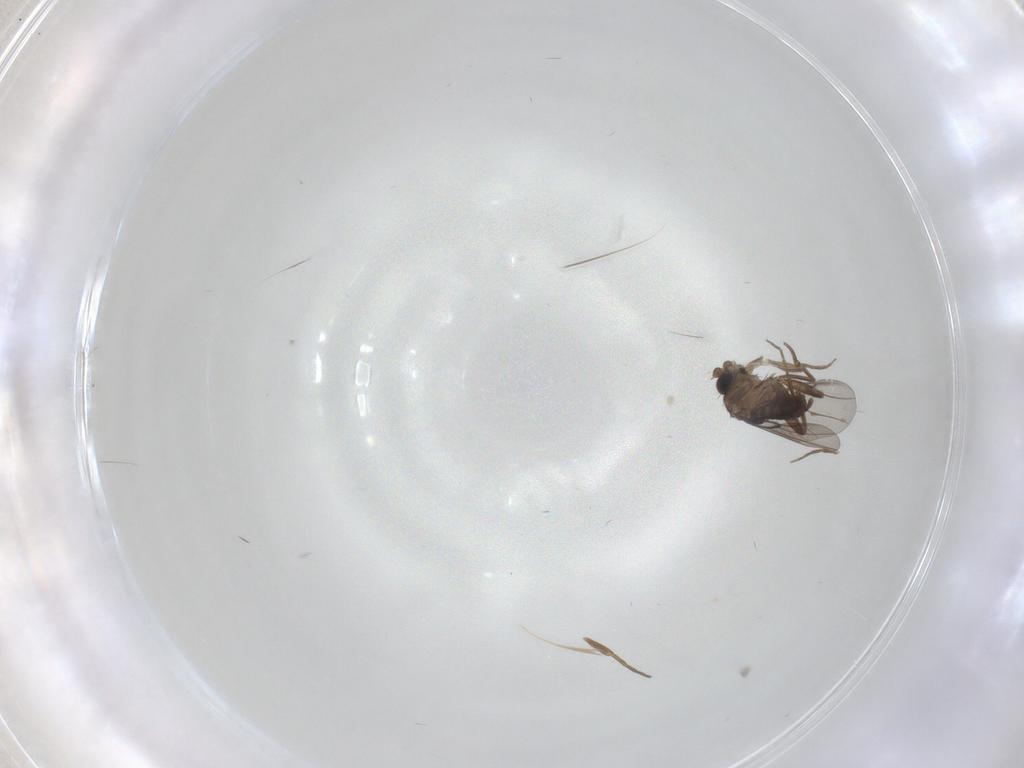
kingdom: Animalia
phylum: Arthropoda
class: Insecta
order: Diptera
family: Phoridae
